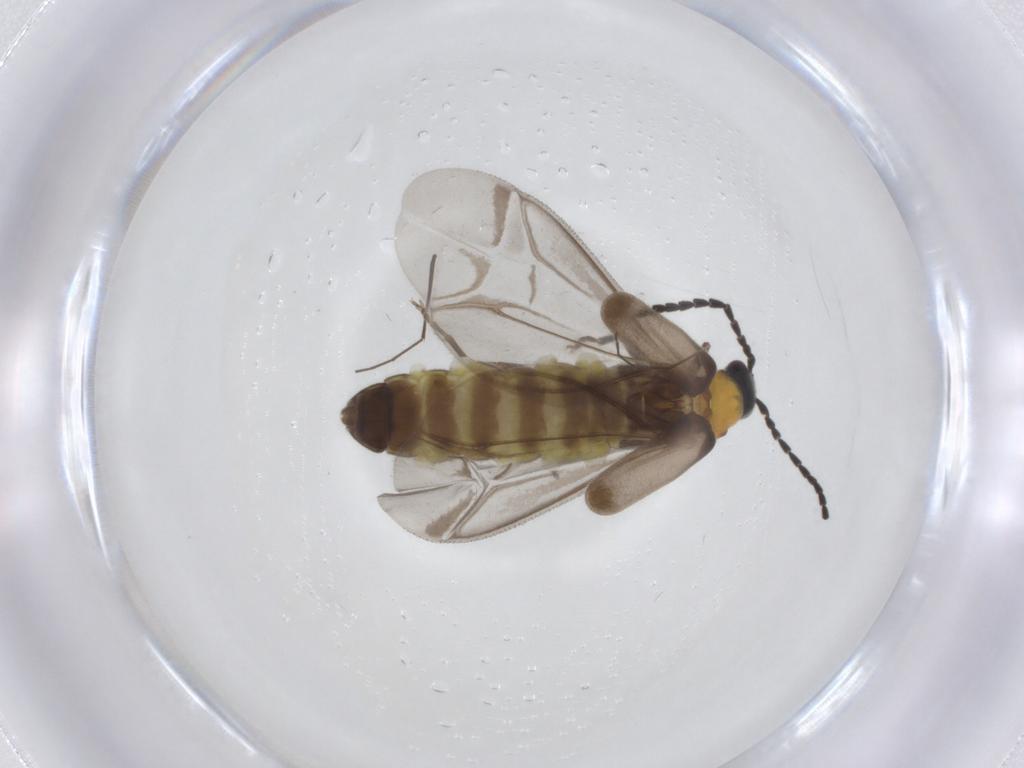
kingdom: Animalia
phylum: Arthropoda
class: Insecta
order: Coleoptera
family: Cantharidae
